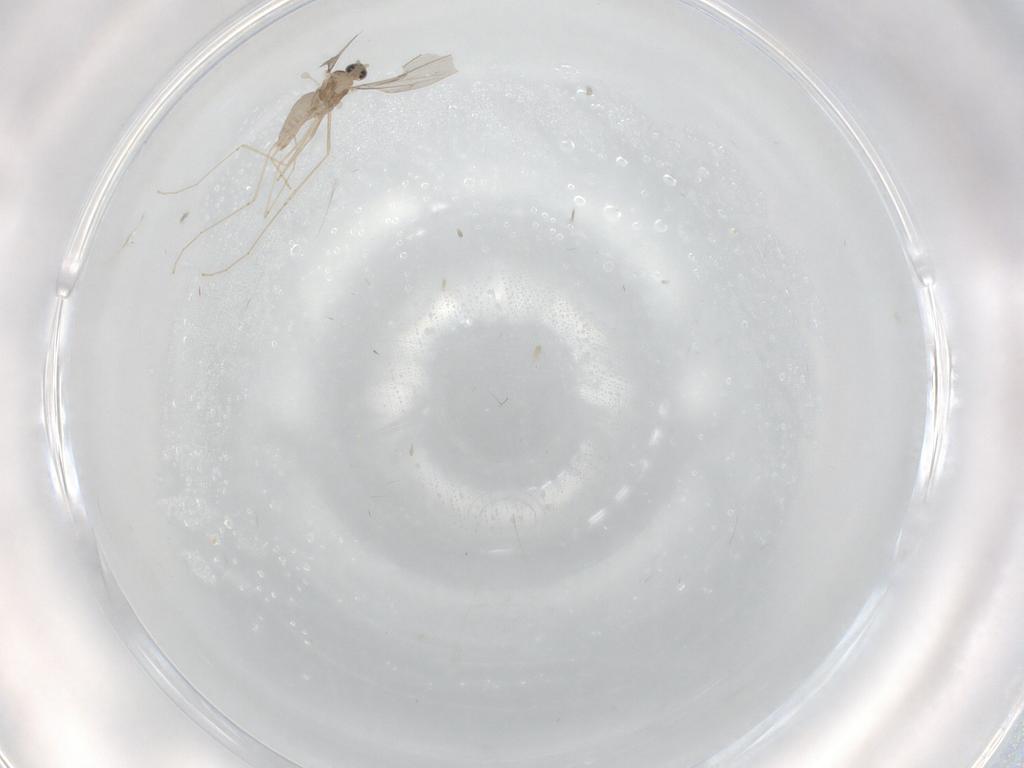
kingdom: Animalia
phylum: Arthropoda
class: Insecta
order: Diptera
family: Cecidomyiidae
